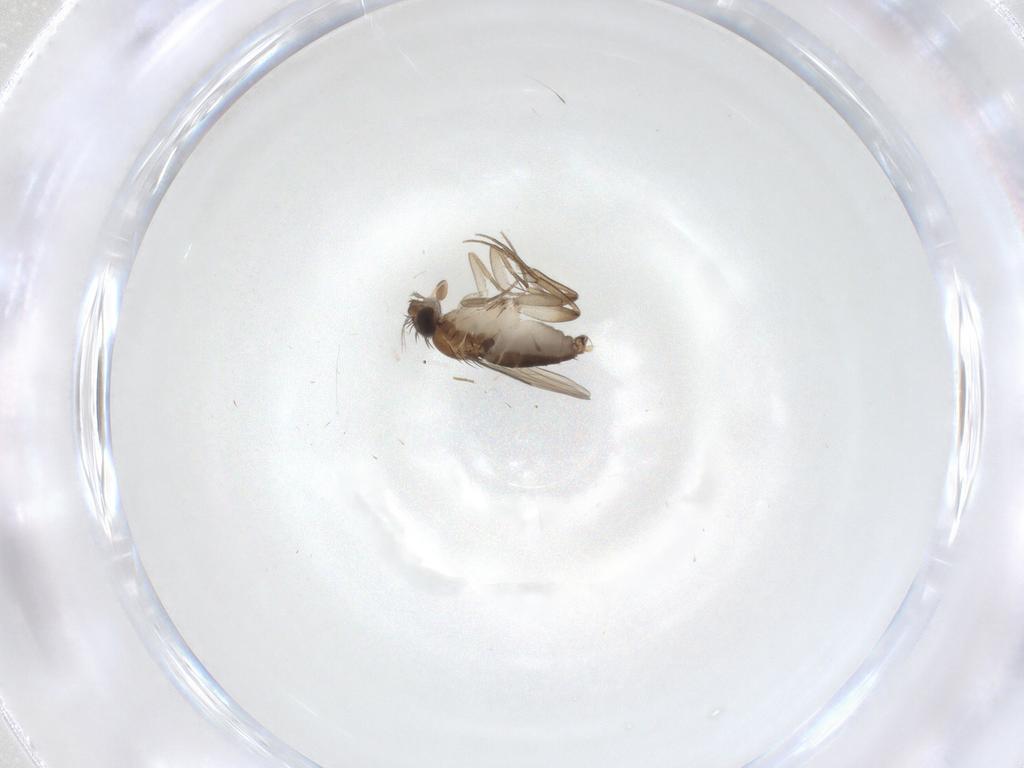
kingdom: Animalia
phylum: Arthropoda
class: Insecta
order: Diptera
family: Phoridae
